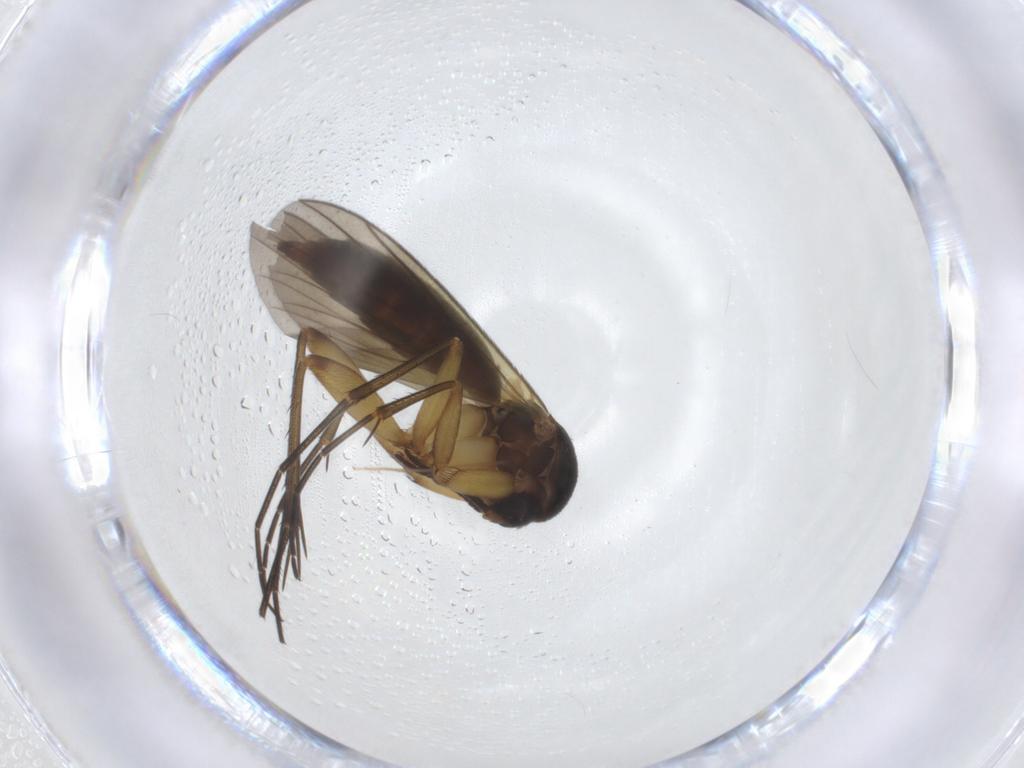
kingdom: Animalia
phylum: Arthropoda
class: Insecta
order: Diptera
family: Mycetophilidae
